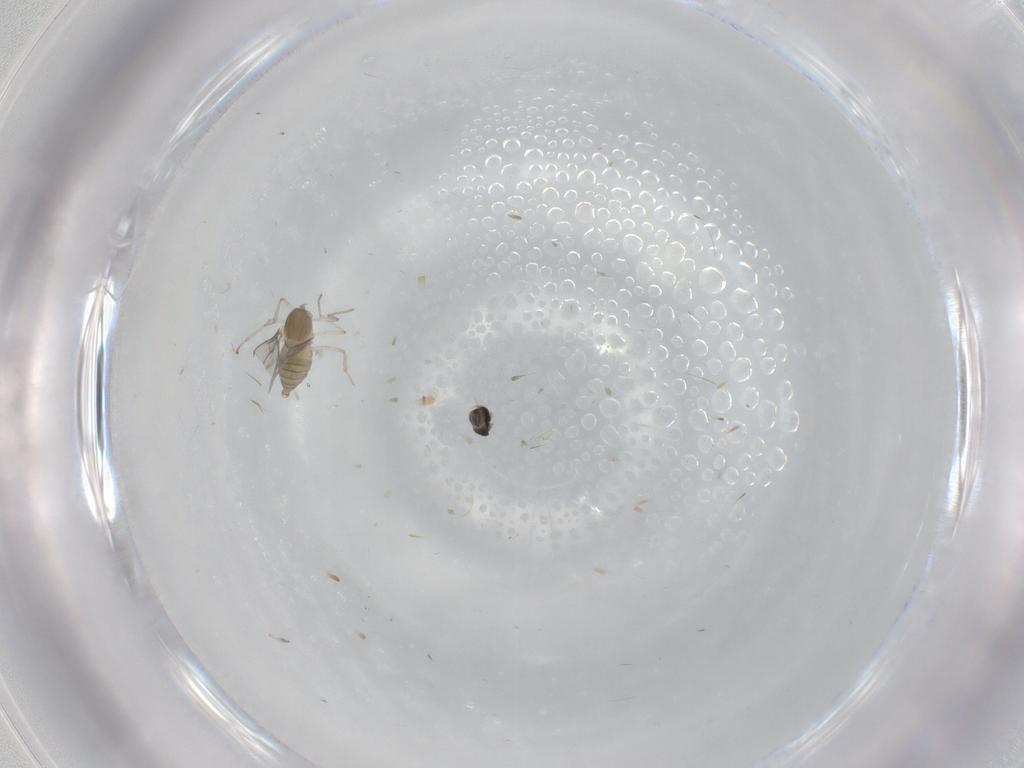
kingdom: Animalia
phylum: Arthropoda
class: Insecta
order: Diptera
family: Cecidomyiidae
